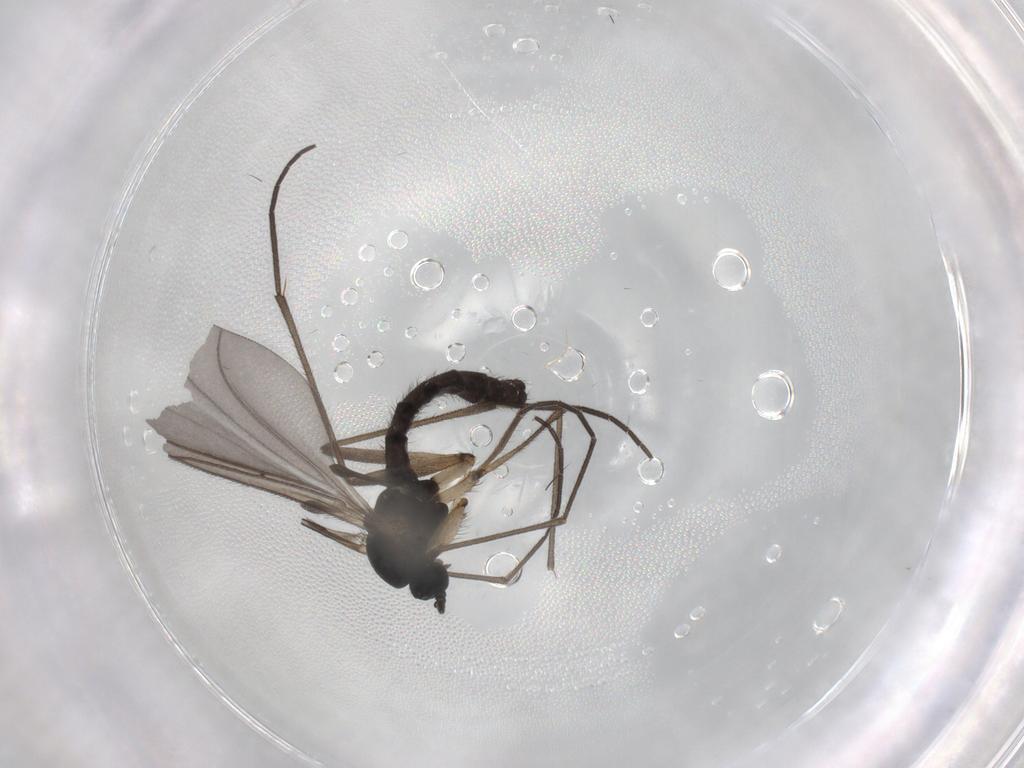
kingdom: Animalia
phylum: Arthropoda
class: Insecta
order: Diptera
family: Sciaridae
